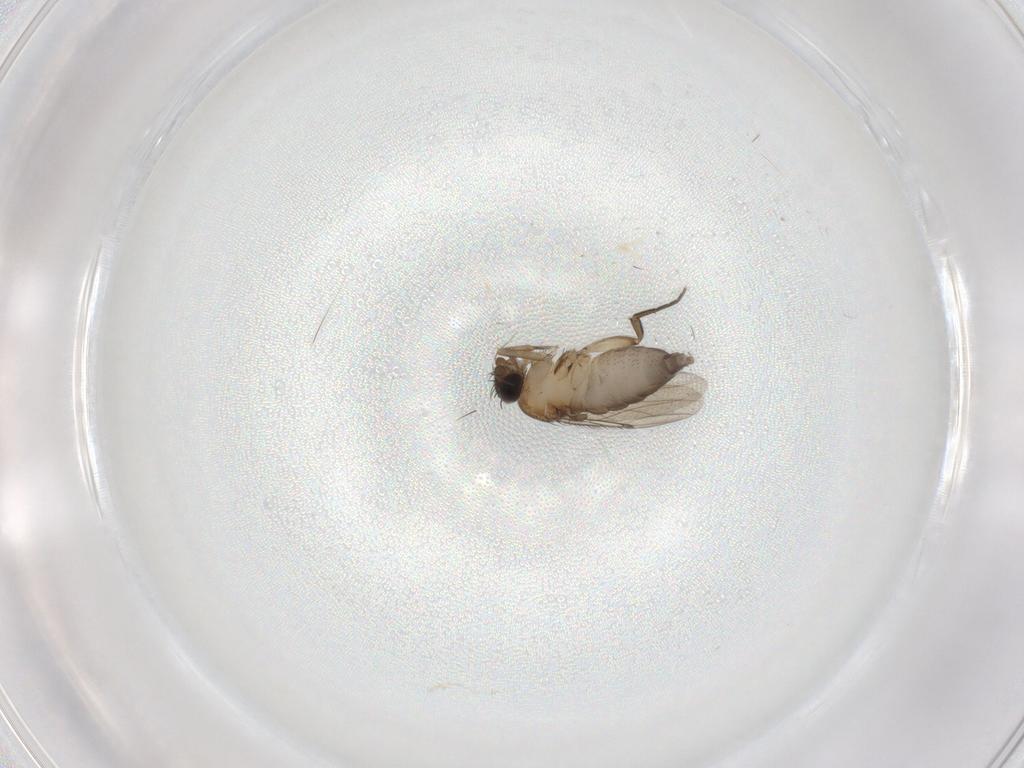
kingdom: Animalia
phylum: Arthropoda
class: Insecta
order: Diptera
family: Phoridae
